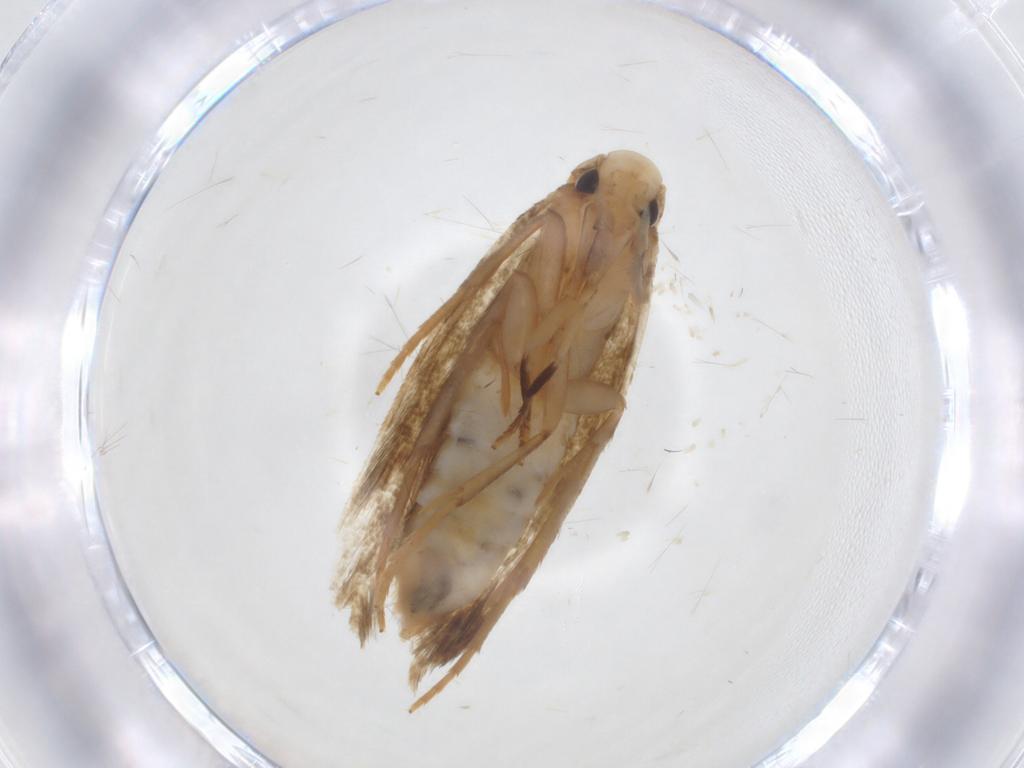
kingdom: Animalia
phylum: Arthropoda
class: Insecta
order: Lepidoptera
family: Tineidae
